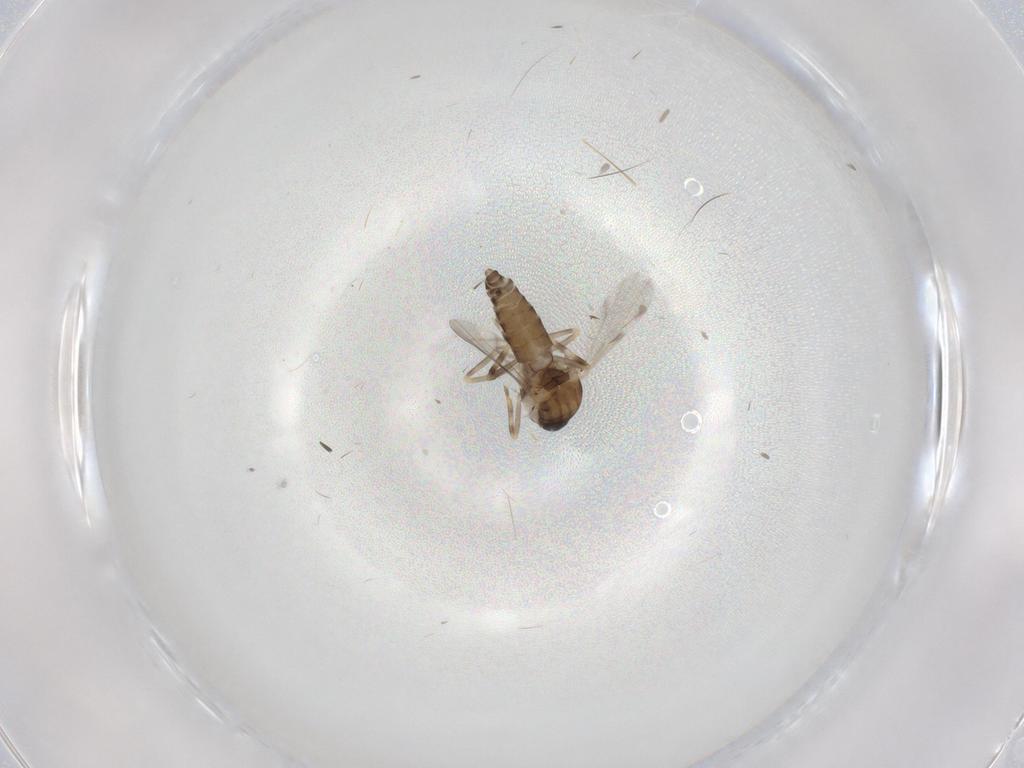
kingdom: Animalia
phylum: Arthropoda
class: Insecta
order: Diptera
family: Ceratopogonidae
